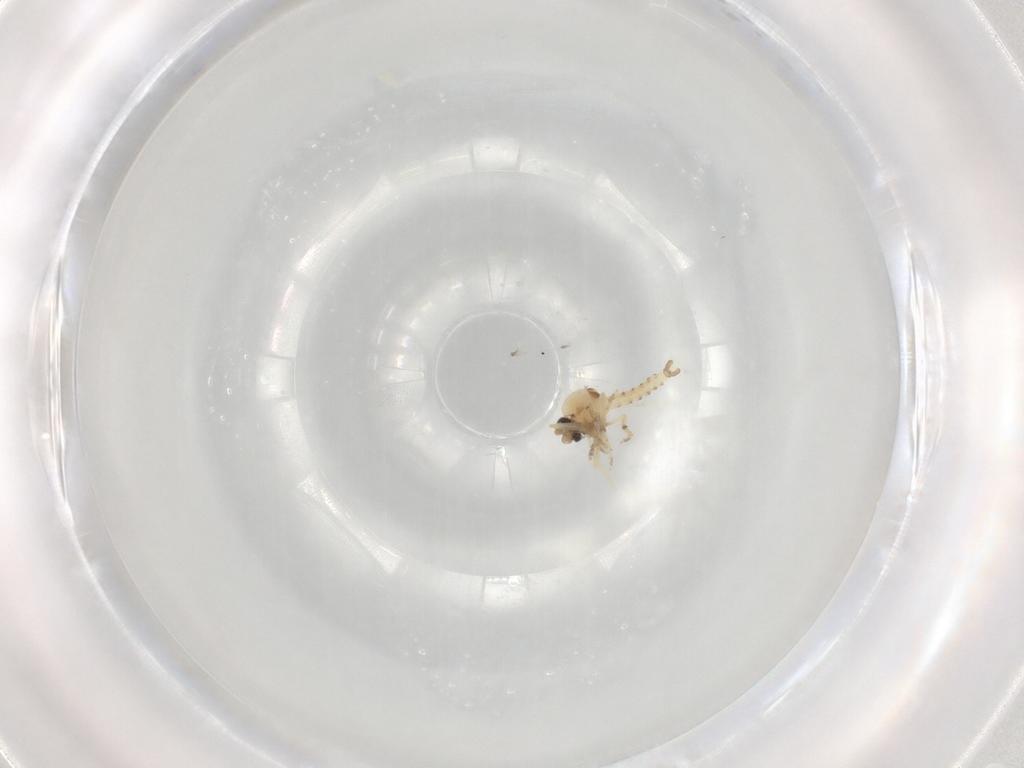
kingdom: Animalia
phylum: Arthropoda
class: Insecta
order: Diptera
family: Ceratopogonidae
